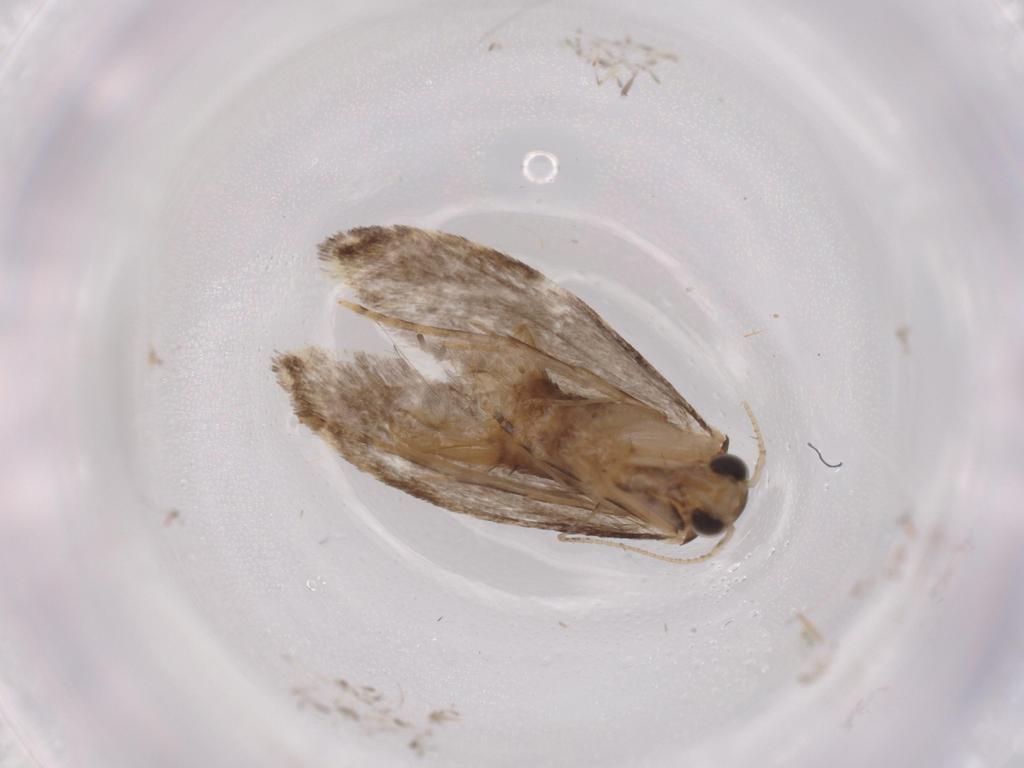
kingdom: Animalia
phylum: Arthropoda
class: Insecta
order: Lepidoptera
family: Tineidae
